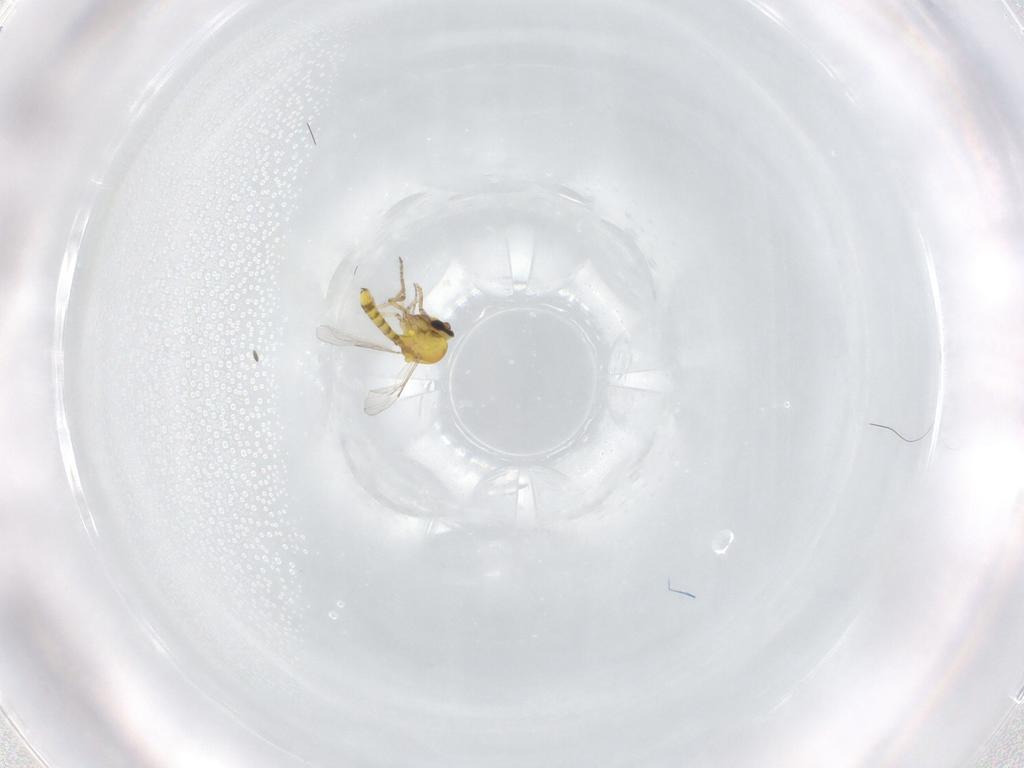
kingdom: Animalia
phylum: Arthropoda
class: Insecta
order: Diptera
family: Ceratopogonidae
